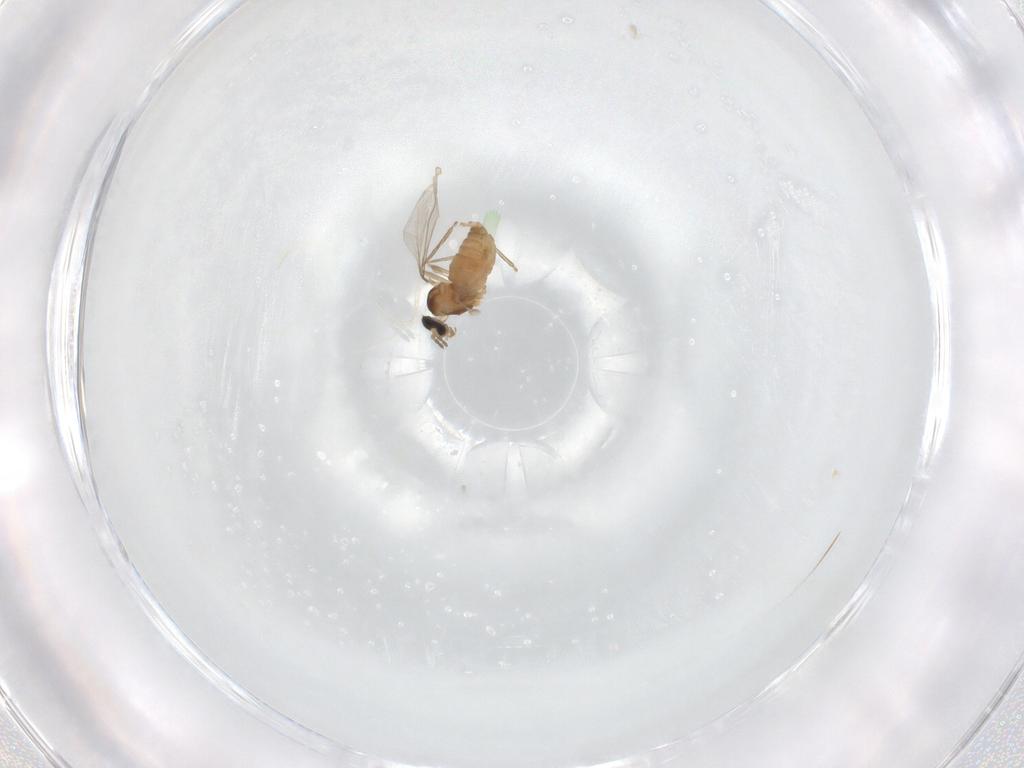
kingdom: Animalia
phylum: Arthropoda
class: Insecta
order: Diptera
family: Cecidomyiidae
